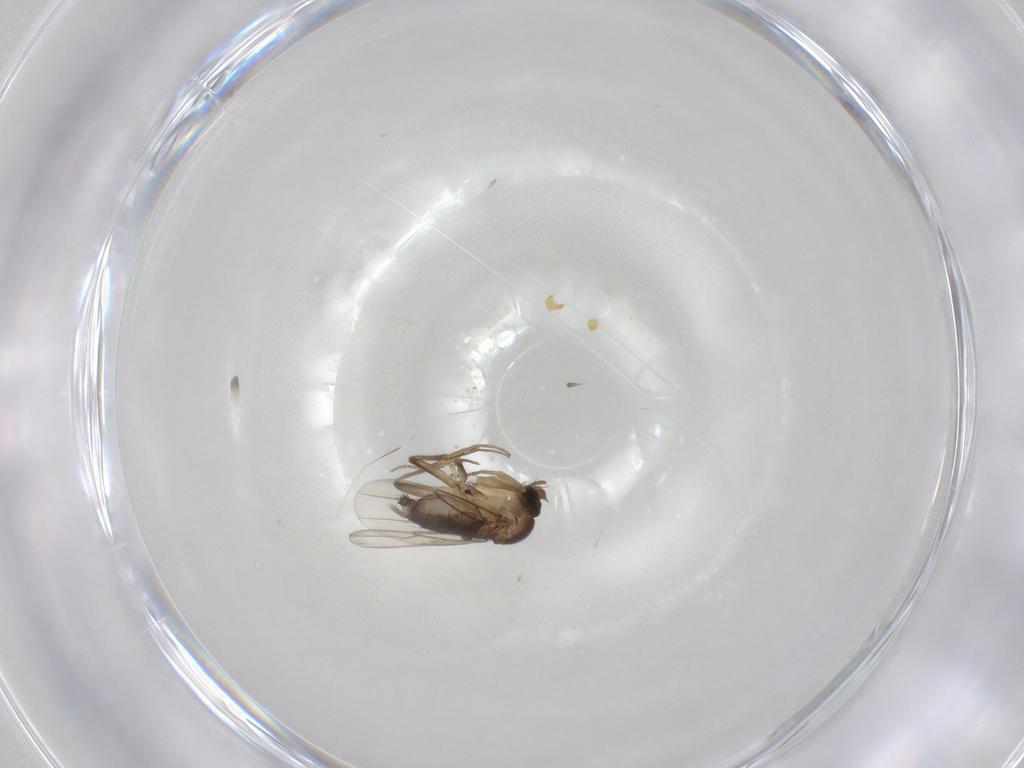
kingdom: Animalia
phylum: Arthropoda
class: Insecta
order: Diptera
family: Phoridae
